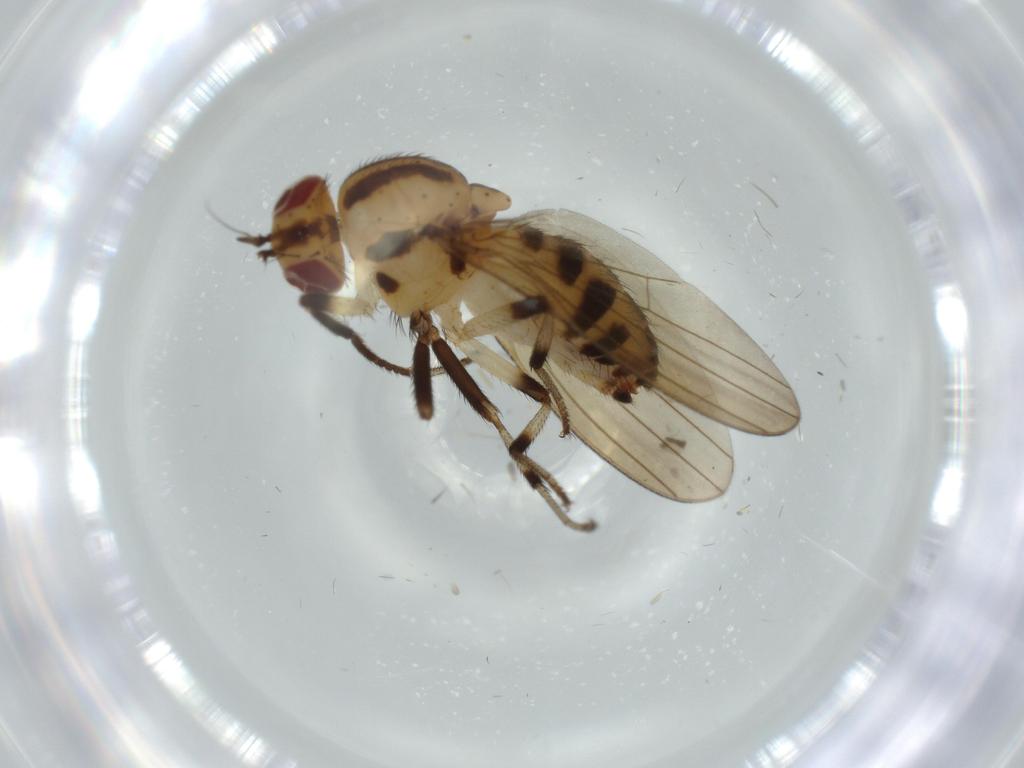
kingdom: Animalia
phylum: Arthropoda
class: Insecta
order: Diptera
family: Lauxaniidae
